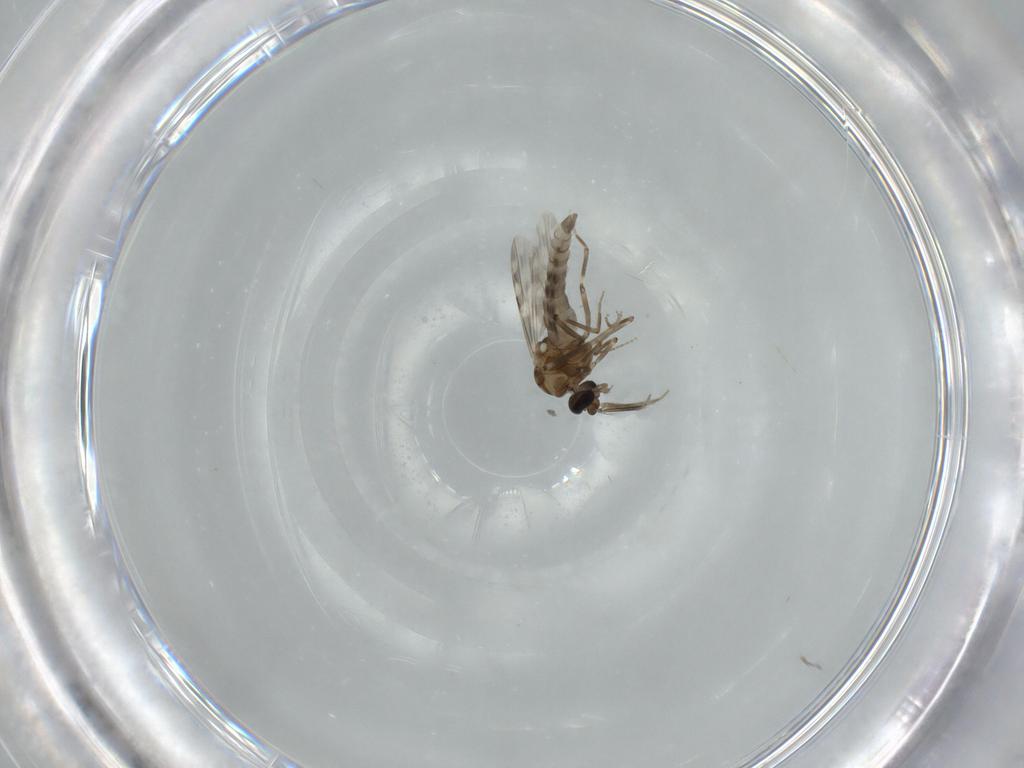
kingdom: Animalia
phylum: Arthropoda
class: Insecta
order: Diptera
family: Ceratopogonidae
